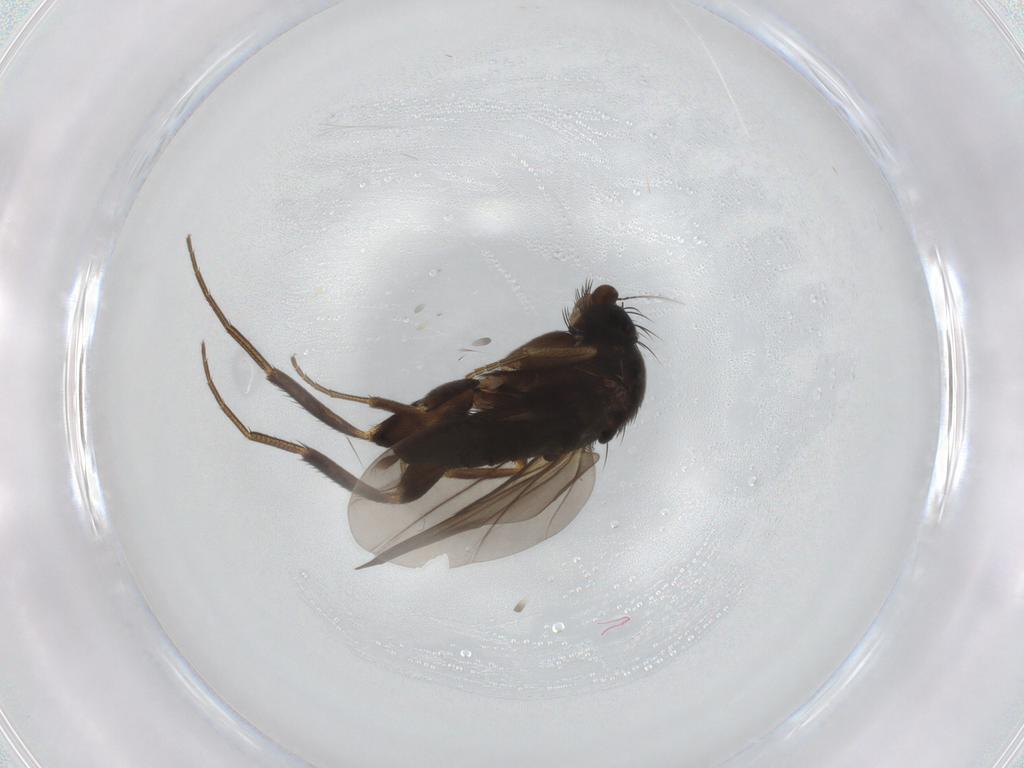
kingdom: Animalia
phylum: Arthropoda
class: Insecta
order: Diptera
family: Phoridae
